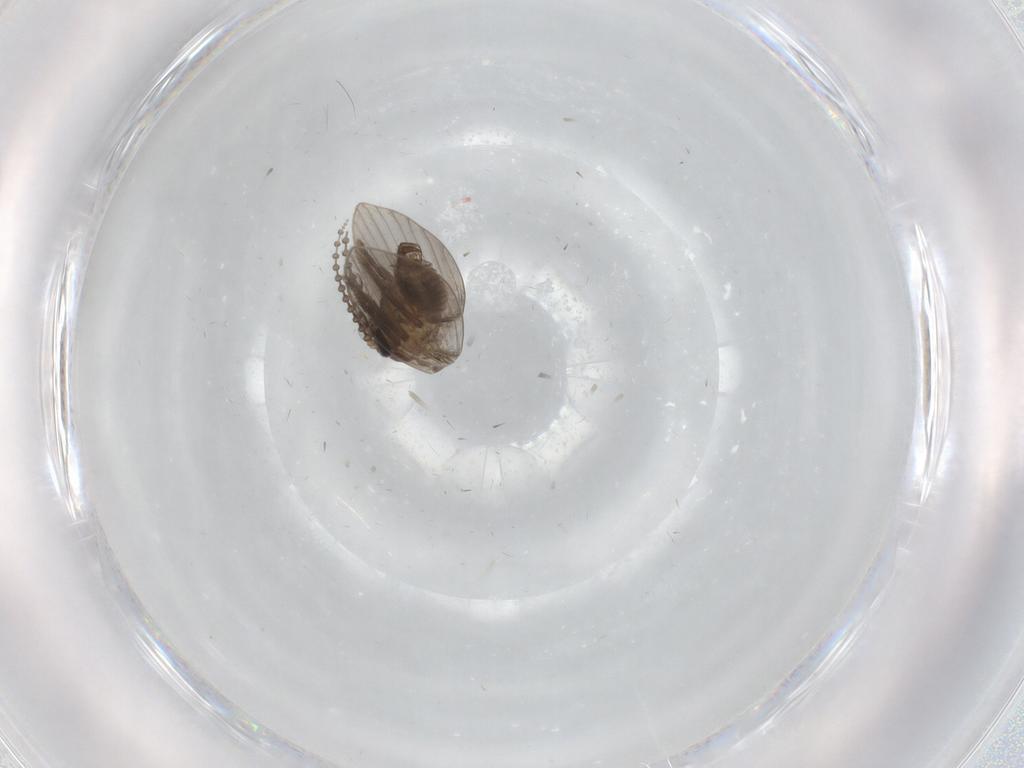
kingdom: Animalia
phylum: Arthropoda
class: Insecta
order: Diptera
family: Psychodidae
